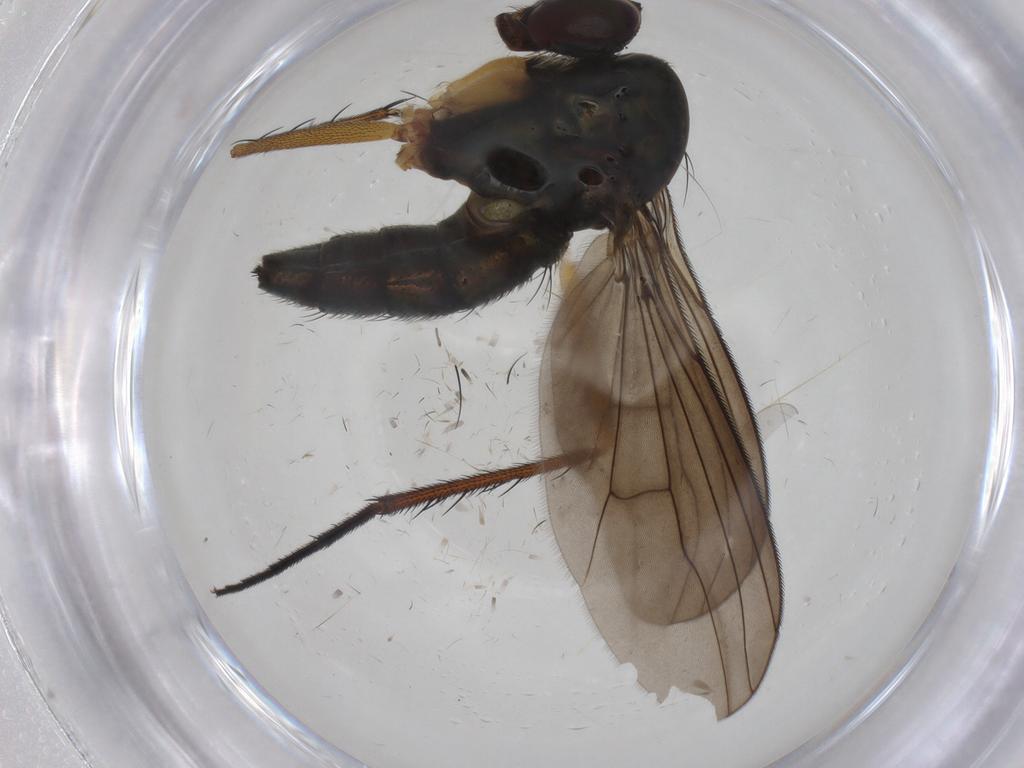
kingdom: Animalia
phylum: Arthropoda
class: Insecta
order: Diptera
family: Dolichopodidae
